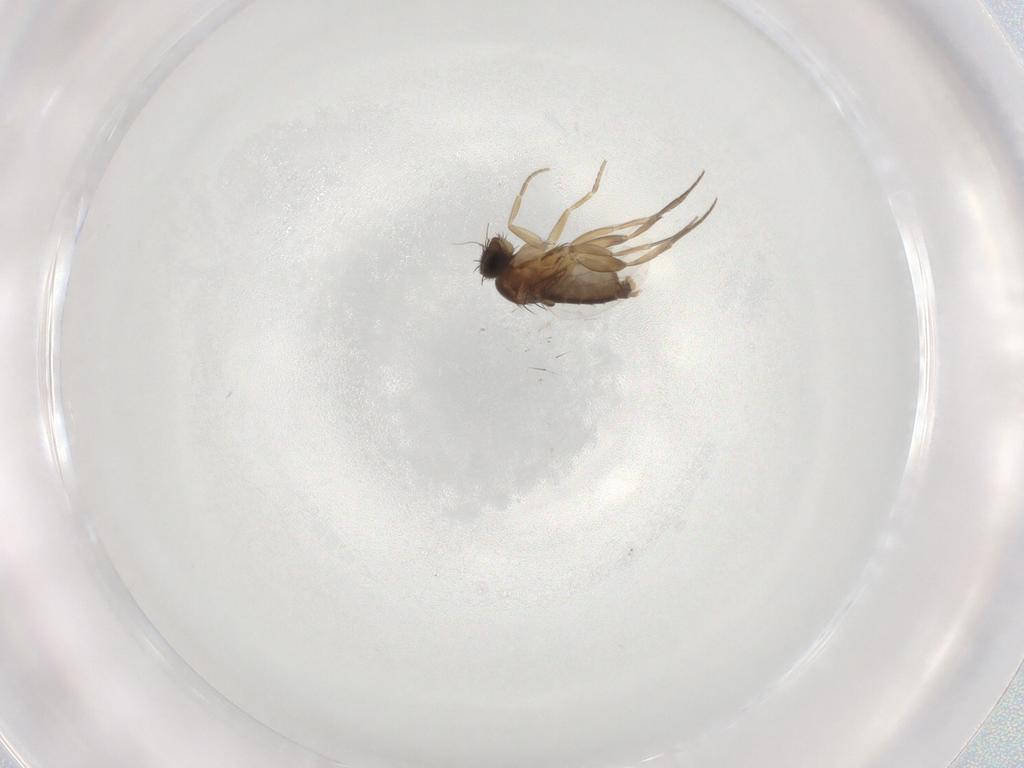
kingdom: Animalia
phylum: Arthropoda
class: Insecta
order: Diptera
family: Phoridae
